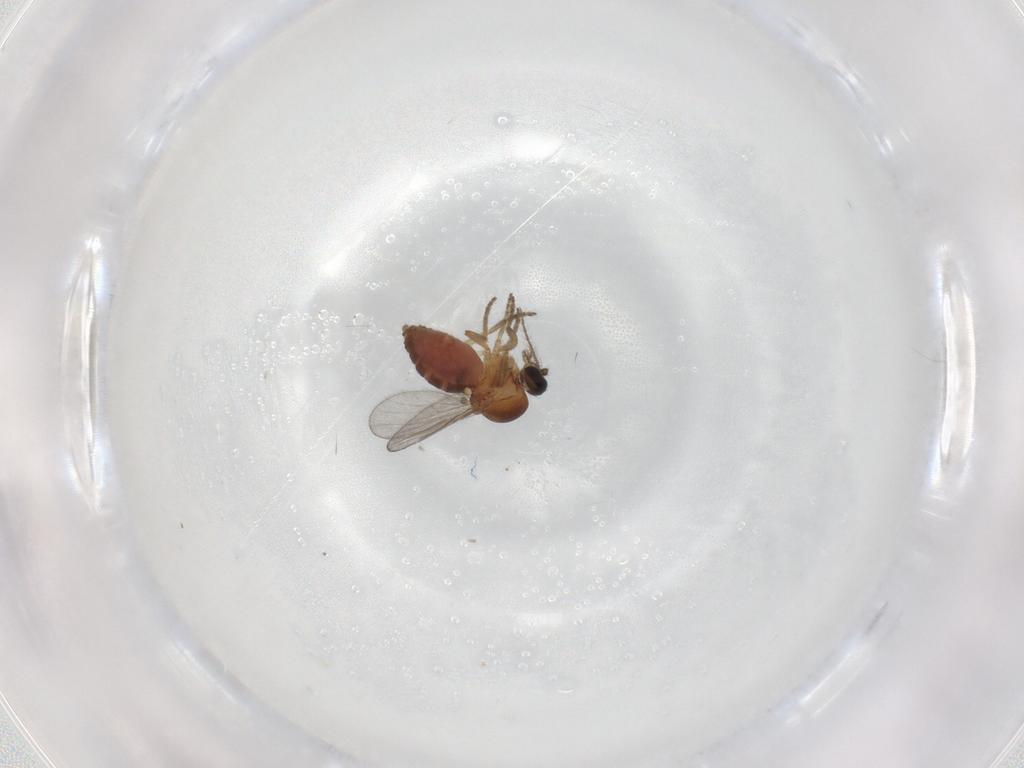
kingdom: Animalia
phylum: Arthropoda
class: Insecta
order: Diptera
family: Ceratopogonidae
